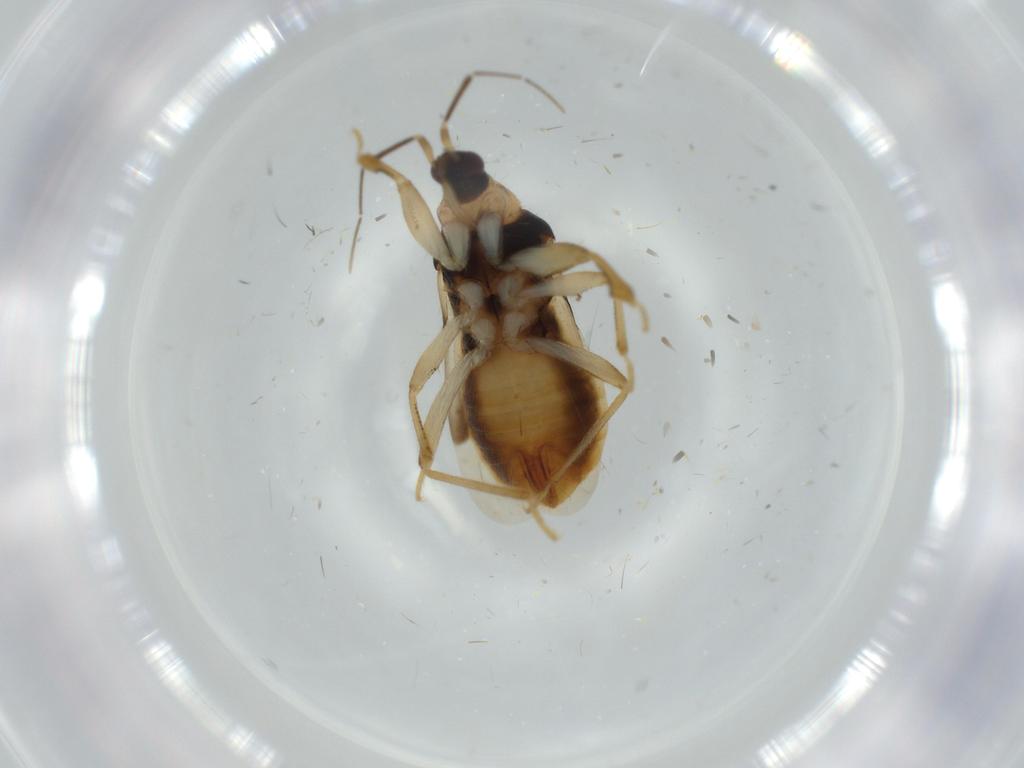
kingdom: Animalia
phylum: Arthropoda
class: Insecta
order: Hemiptera
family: Nabidae
